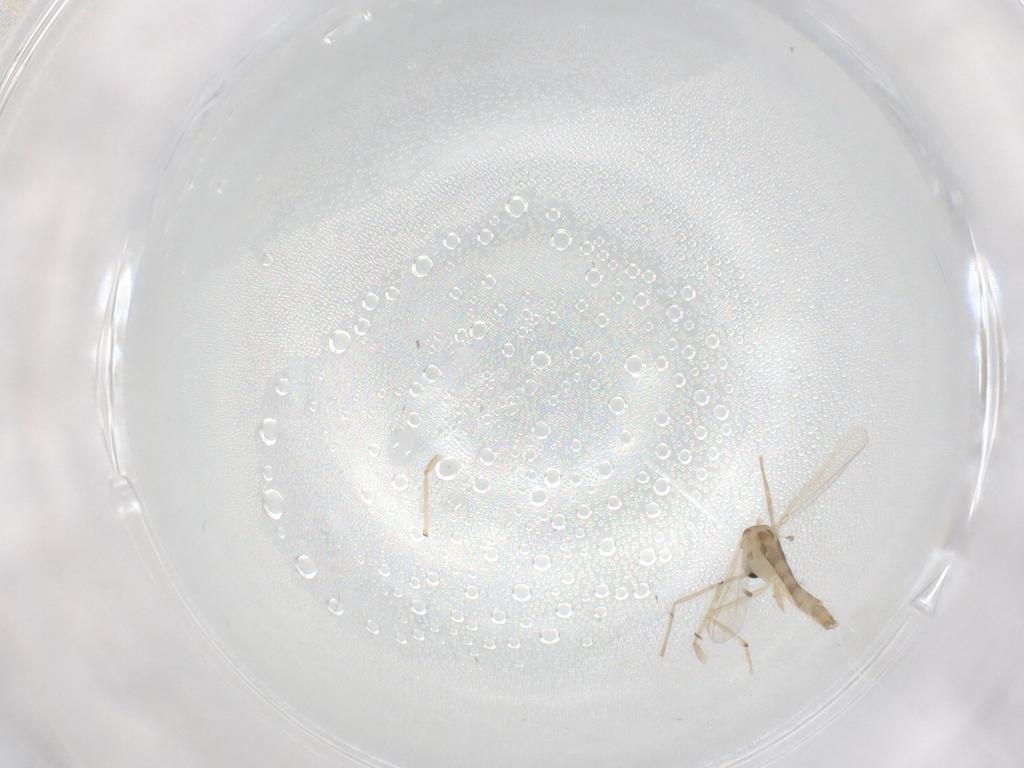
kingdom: Animalia
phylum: Arthropoda
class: Insecta
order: Diptera
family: Chironomidae
